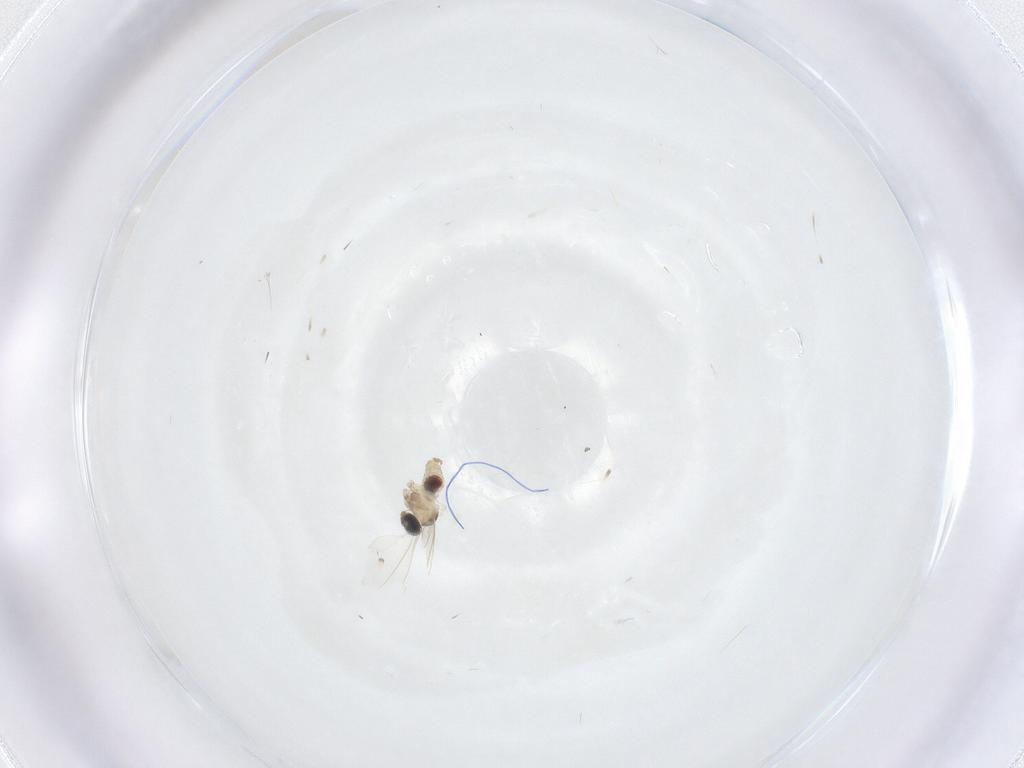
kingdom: Animalia
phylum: Arthropoda
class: Insecta
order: Diptera
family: Cecidomyiidae
